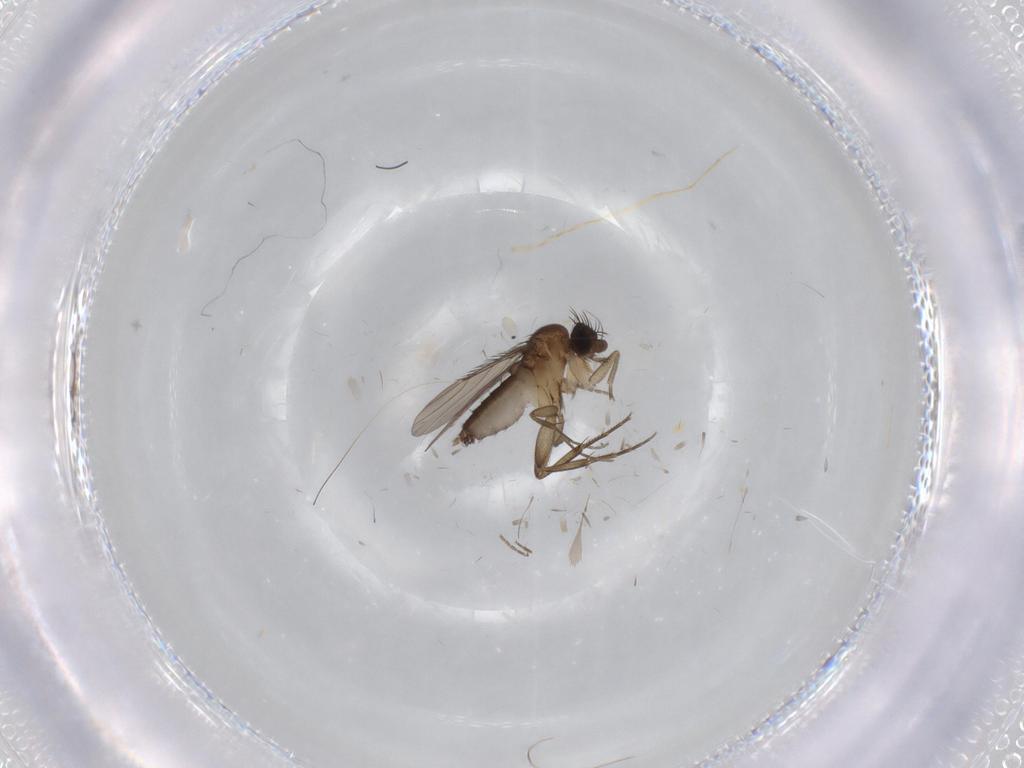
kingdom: Animalia
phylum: Arthropoda
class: Insecta
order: Diptera
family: Phoridae
